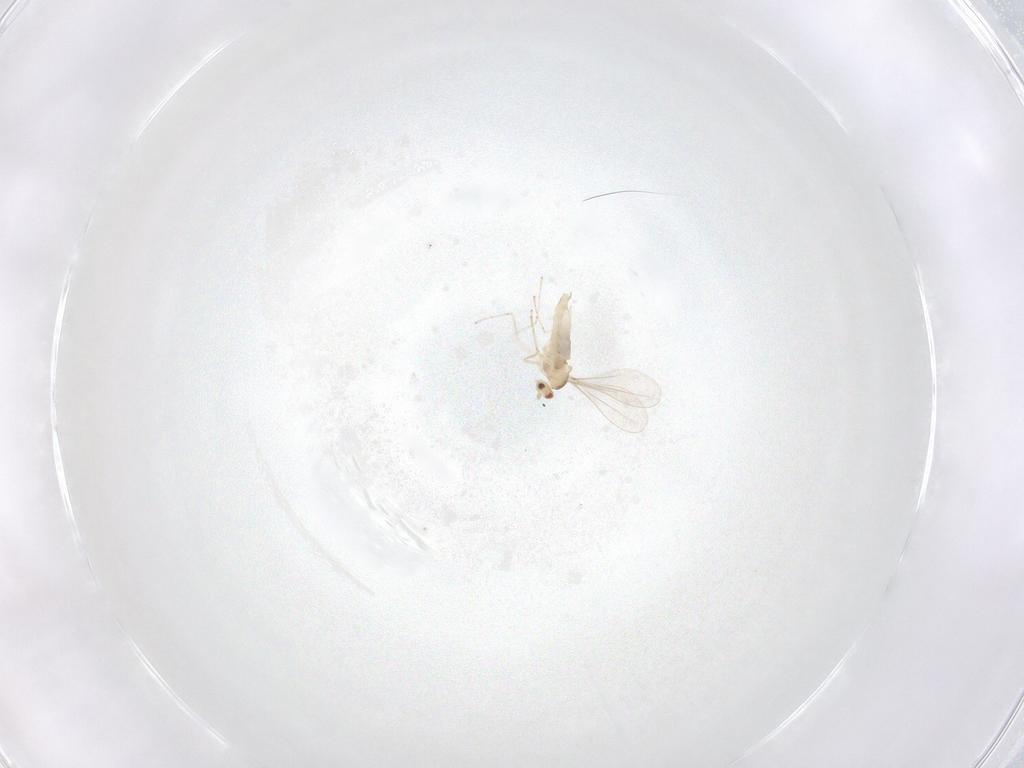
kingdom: Animalia
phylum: Arthropoda
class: Insecta
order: Diptera
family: Cecidomyiidae
